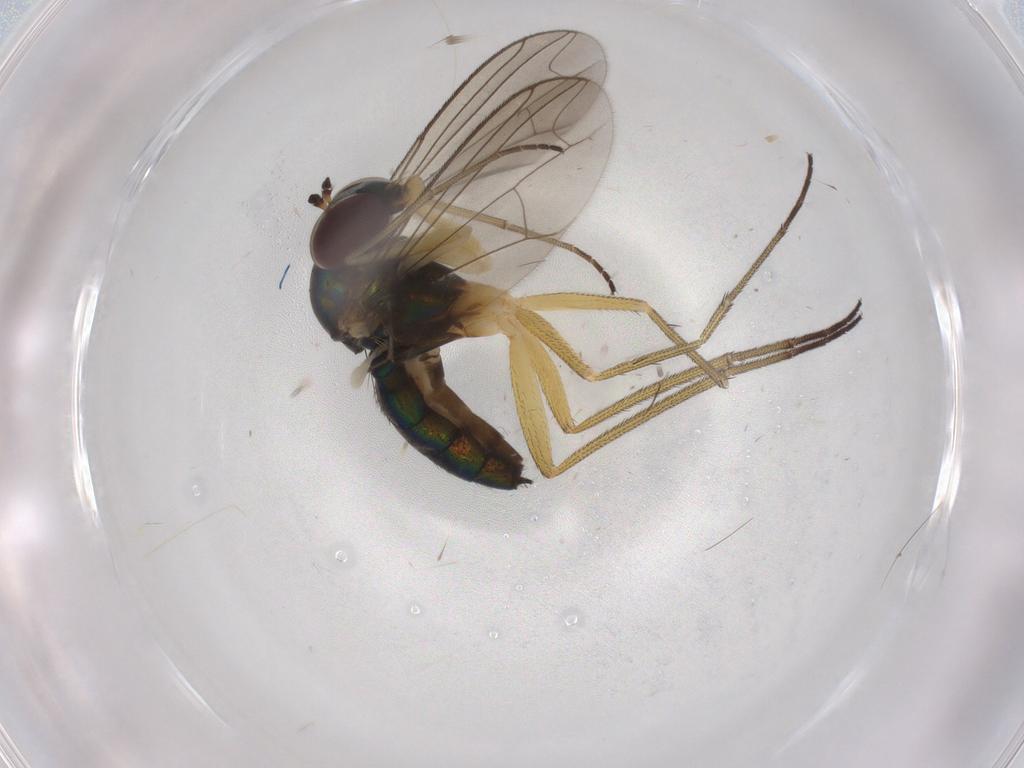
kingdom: Animalia
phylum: Arthropoda
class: Insecta
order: Diptera
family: Dolichopodidae
